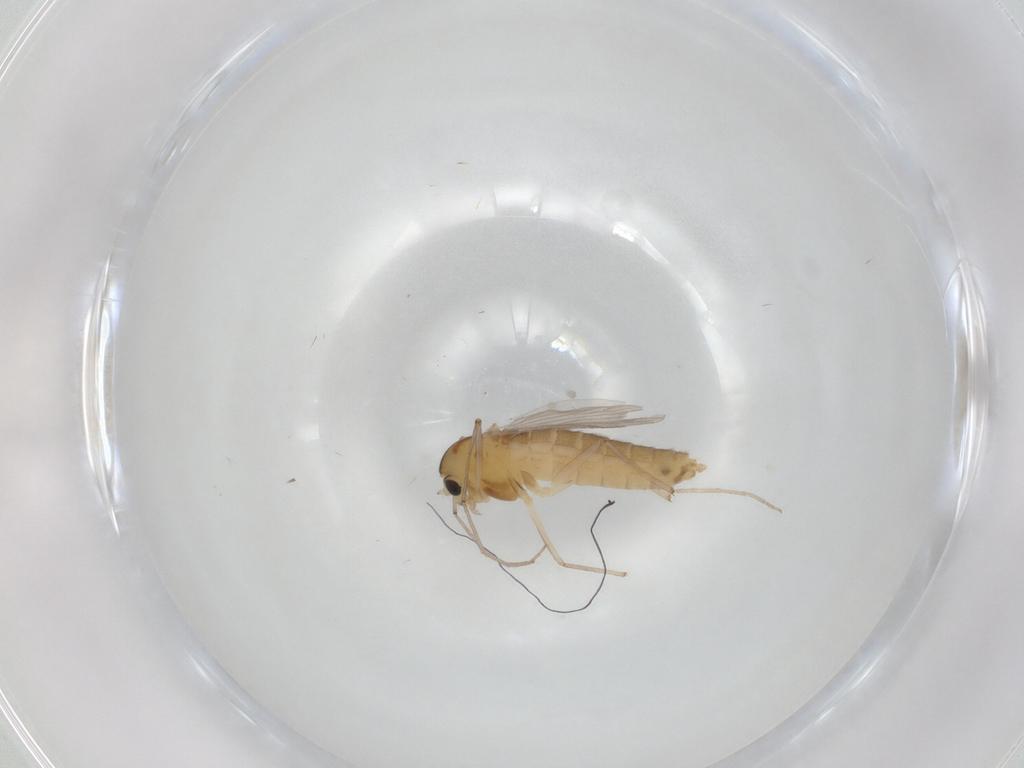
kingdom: Animalia
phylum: Arthropoda
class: Insecta
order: Diptera
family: Chironomidae
